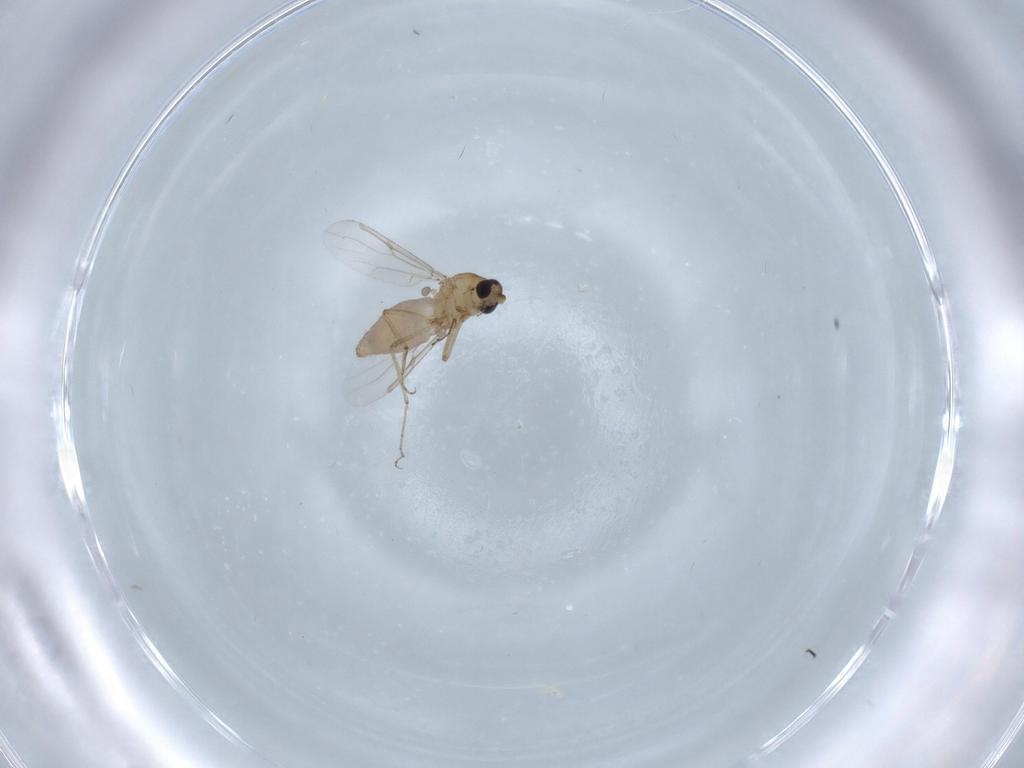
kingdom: Animalia
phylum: Arthropoda
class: Insecta
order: Diptera
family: Ceratopogonidae
